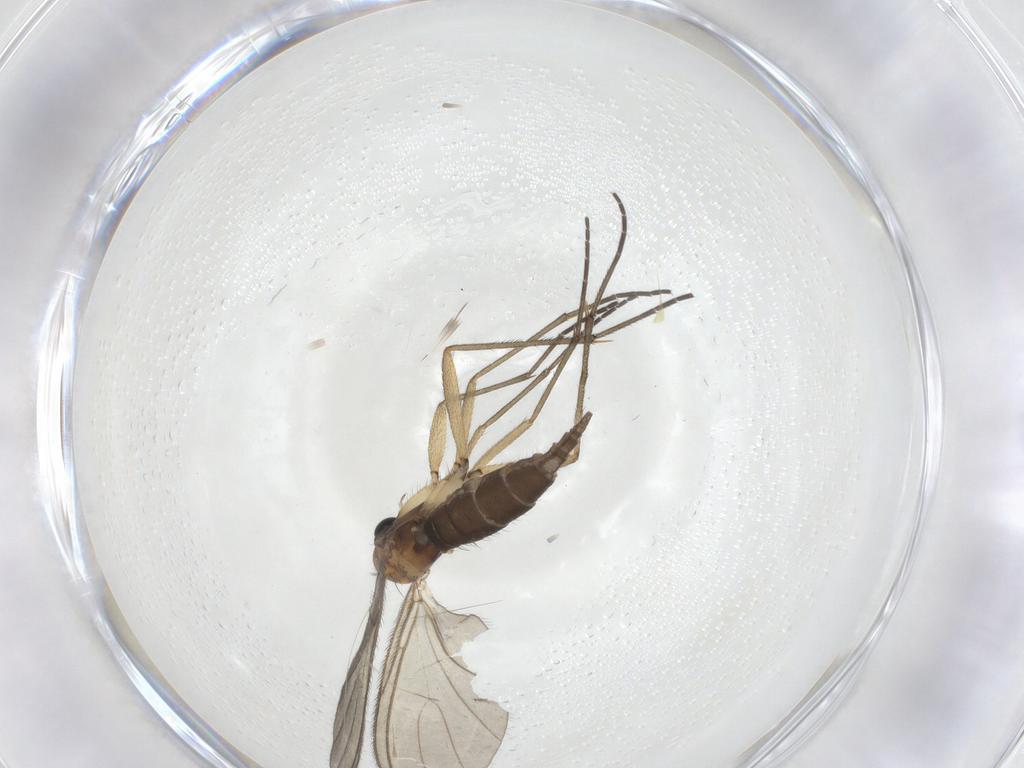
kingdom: Animalia
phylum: Arthropoda
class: Insecta
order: Diptera
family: Sciaridae
